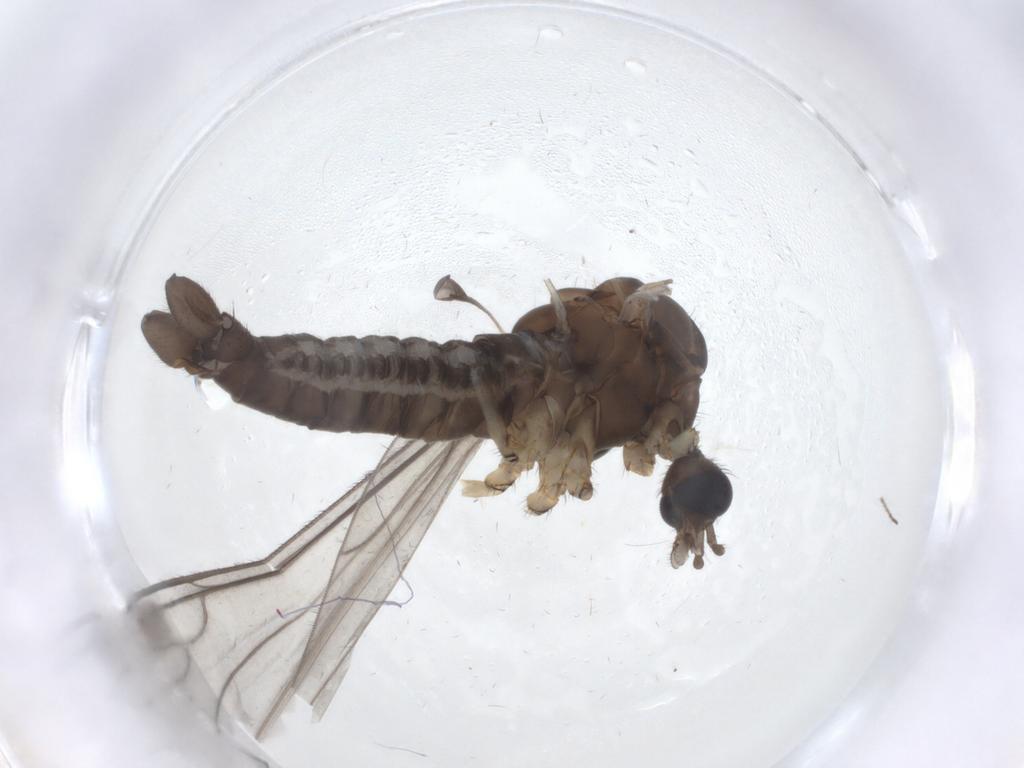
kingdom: Animalia
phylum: Arthropoda
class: Insecta
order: Diptera
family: Phoridae
